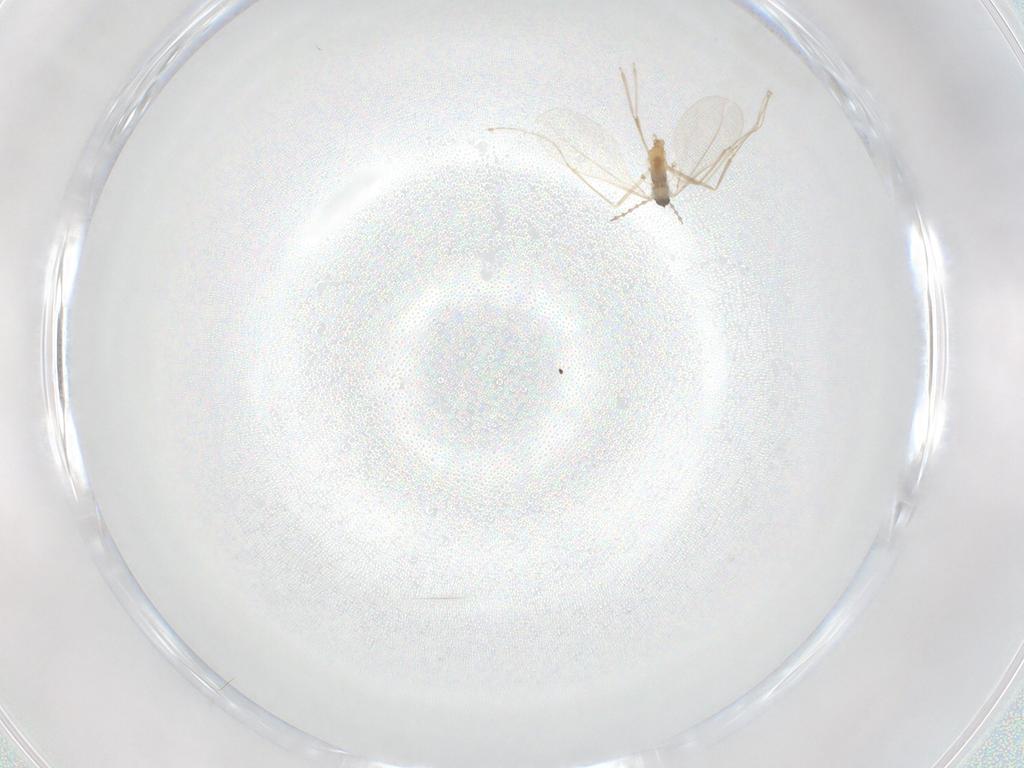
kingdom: Animalia
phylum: Arthropoda
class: Insecta
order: Diptera
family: Cecidomyiidae
